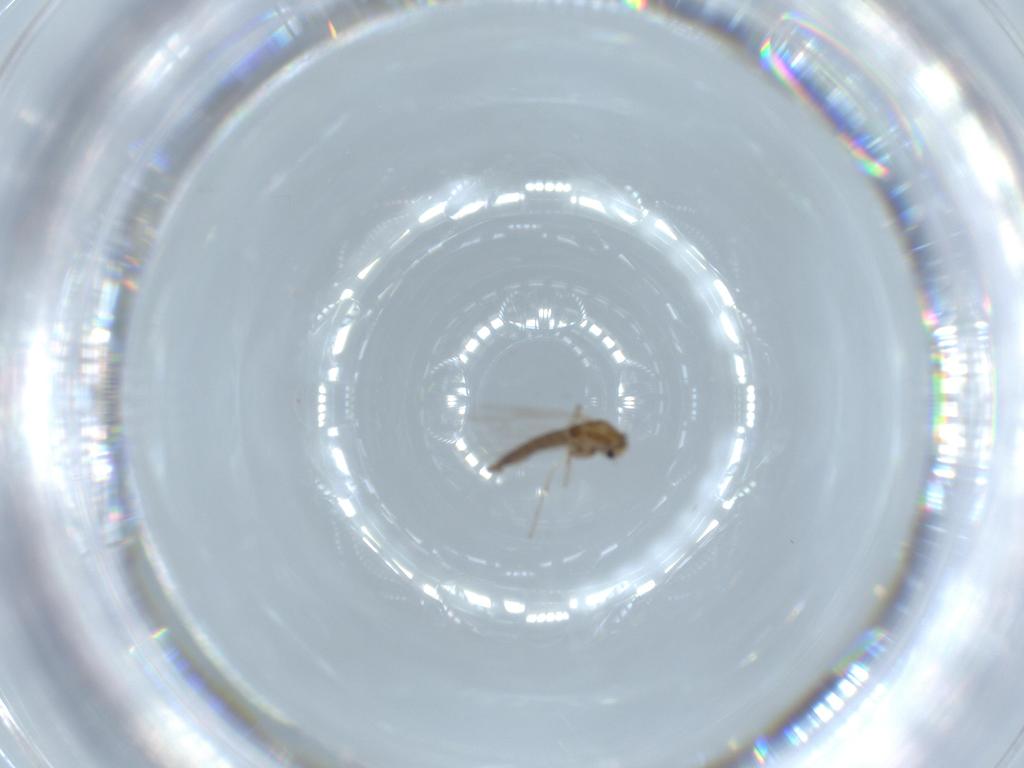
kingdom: Animalia
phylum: Arthropoda
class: Insecta
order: Diptera
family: Chironomidae
